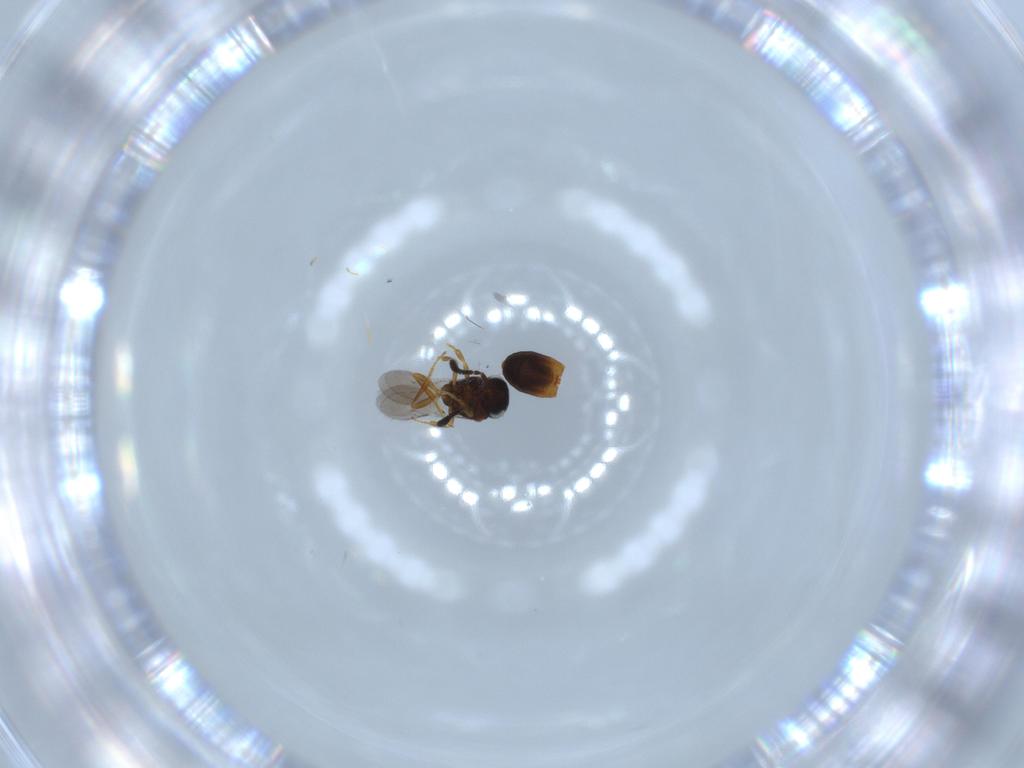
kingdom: Animalia
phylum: Arthropoda
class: Insecta
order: Hymenoptera
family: Scelionidae
